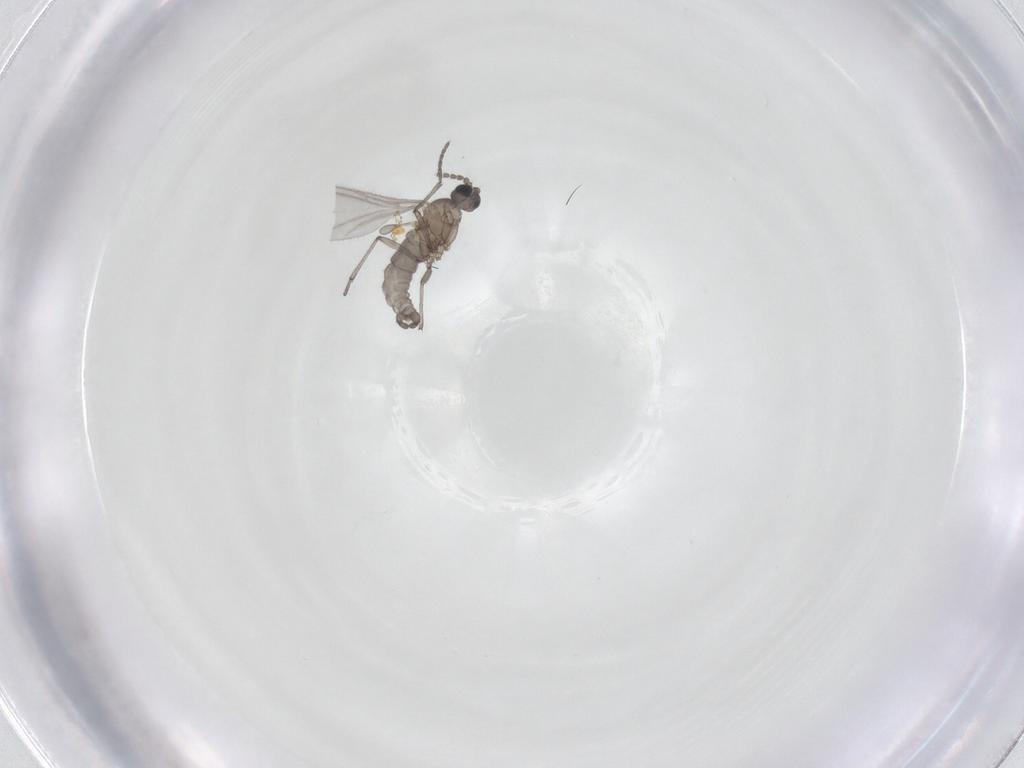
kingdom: Animalia
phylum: Arthropoda
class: Insecta
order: Diptera
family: Sciaridae
